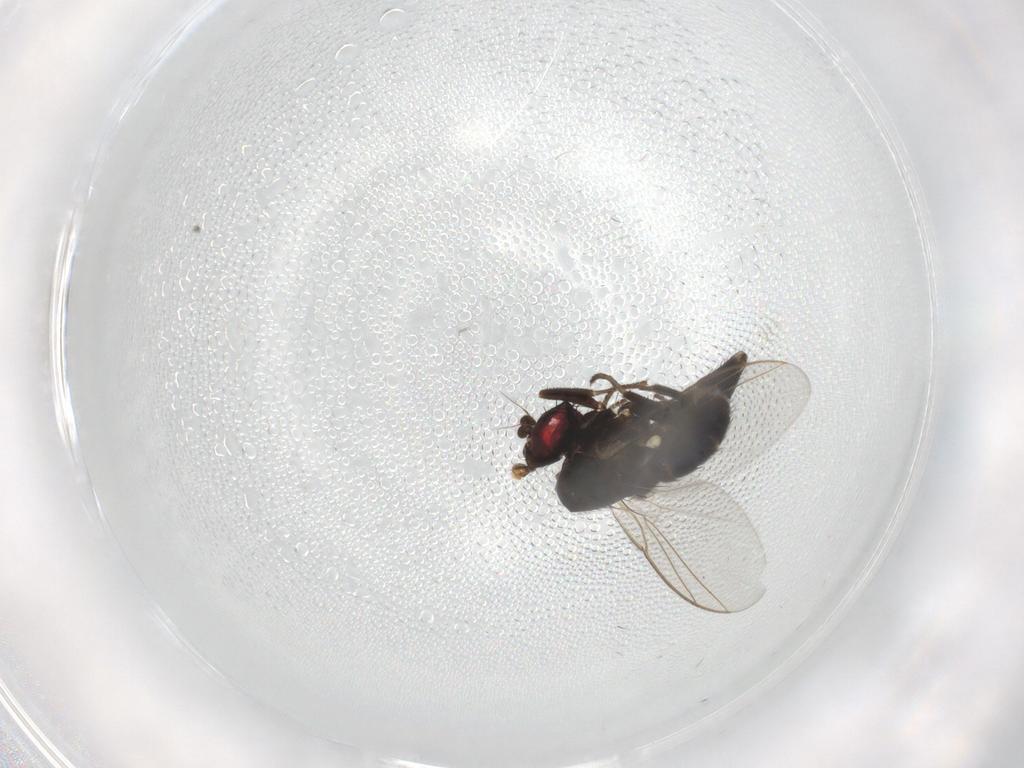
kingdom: Animalia
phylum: Arthropoda
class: Insecta
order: Diptera
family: Agromyzidae
